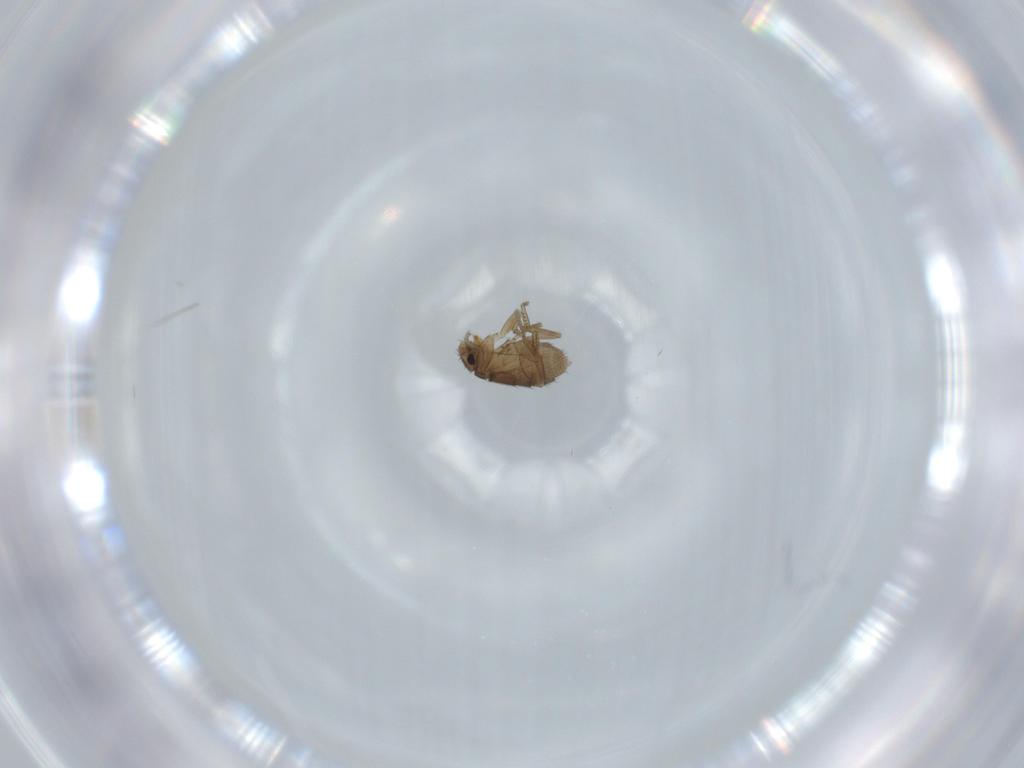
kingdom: Animalia
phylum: Arthropoda
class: Insecta
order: Diptera
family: Phoridae
